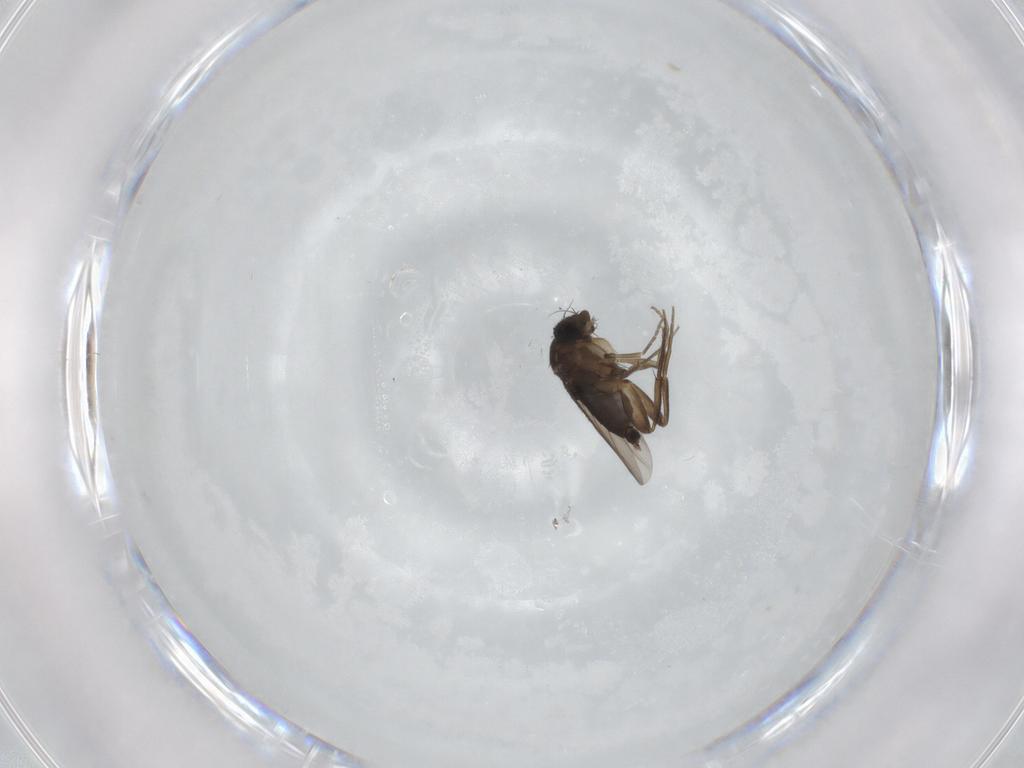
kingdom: Animalia
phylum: Arthropoda
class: Insecta
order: Diptera
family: Phoridae
